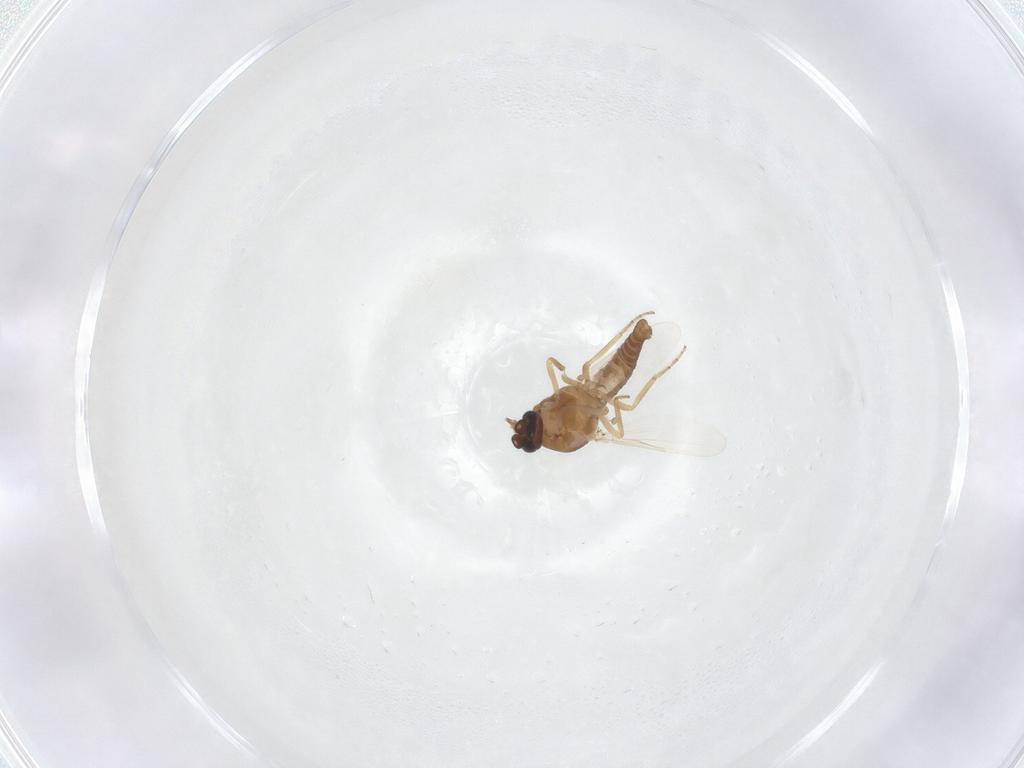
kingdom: Animalia
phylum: Arthropoda
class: Insecta
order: Diptera
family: Ceratopogonidae
